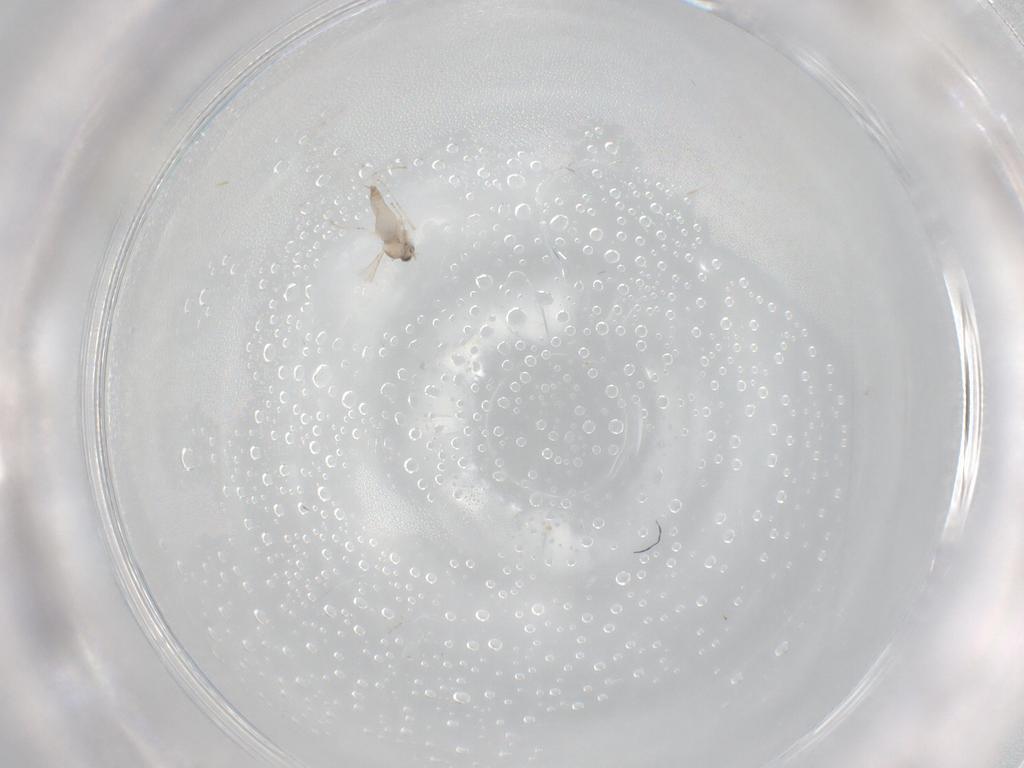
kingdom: Animalia
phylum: Arthropoda
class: Insecta
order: Diptera
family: Cecidomyiidae
